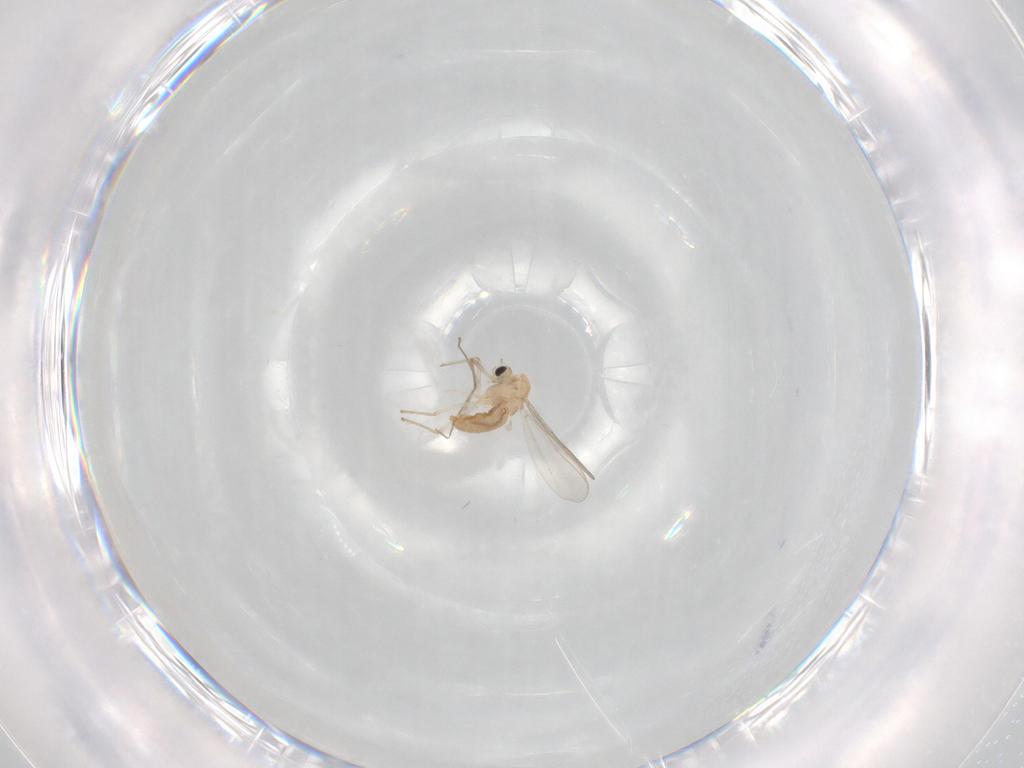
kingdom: Animalia
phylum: Arthropoda
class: Insecta
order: Diptera
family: Chironomidae
